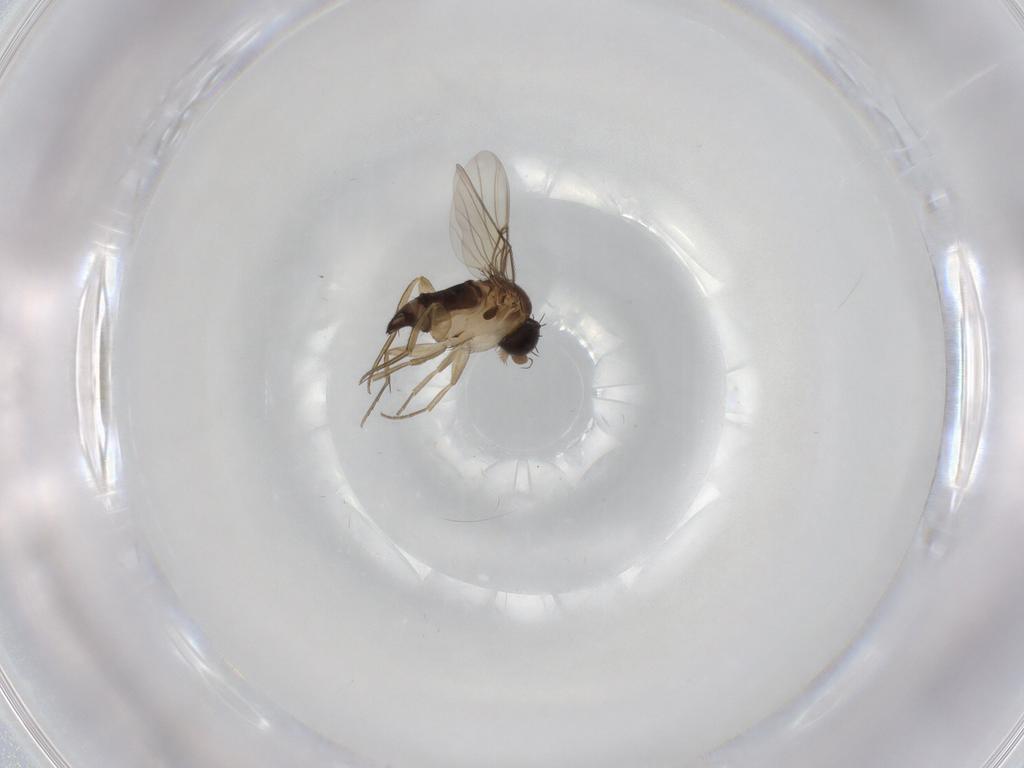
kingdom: Animalia
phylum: Arthropoda
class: Insecta
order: Diptera
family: Phoridae
